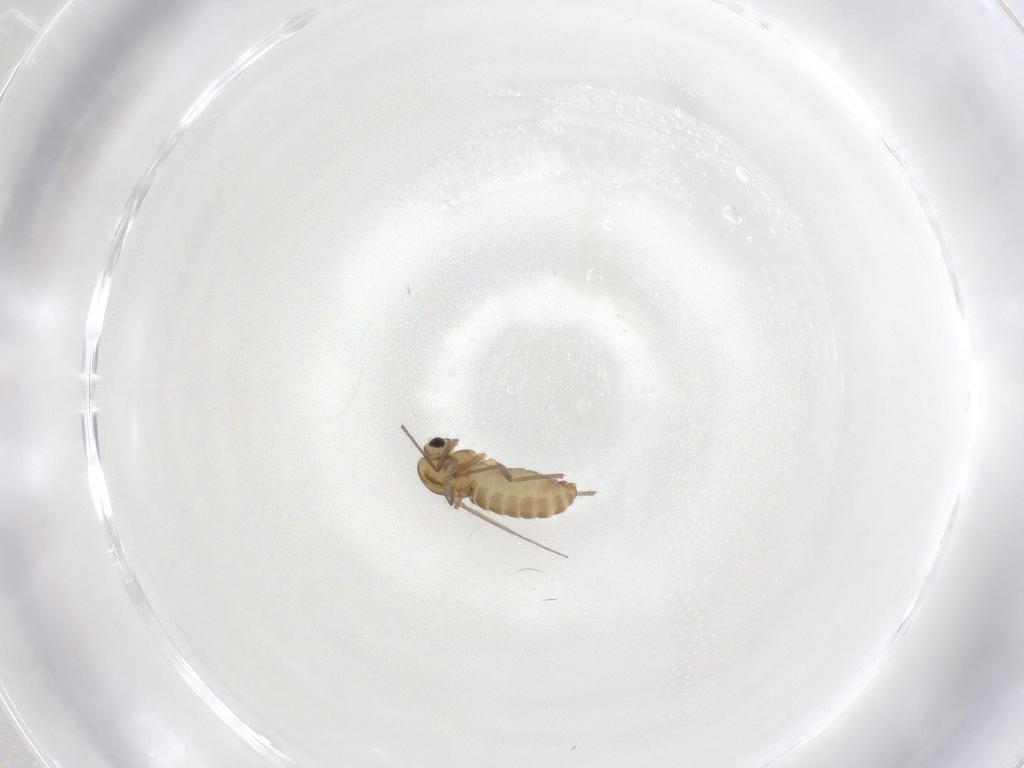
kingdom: Animalia
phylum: Arthropoda
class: Insecta
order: Diptera
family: Chironomidae
